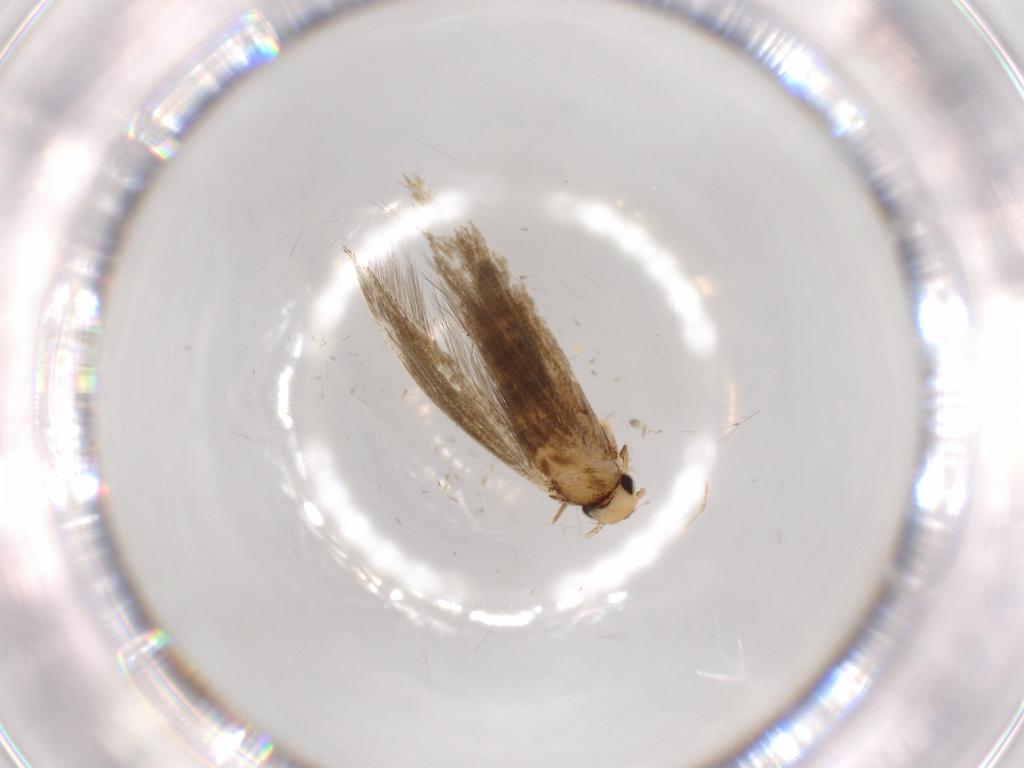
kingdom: Animalia
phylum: Arthropoda
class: Insecta
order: Lepidoptera
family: Tineidae
